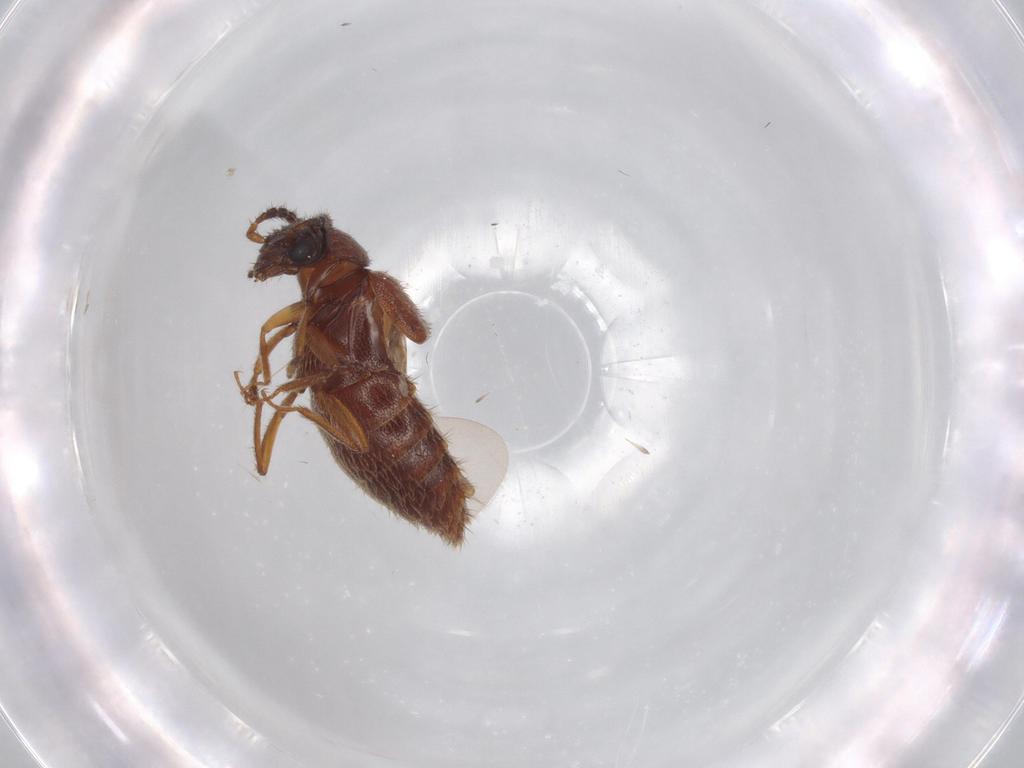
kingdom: Animalia
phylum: Arthropoda
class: Insecta
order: Coleoptera
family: Staphylinidae
